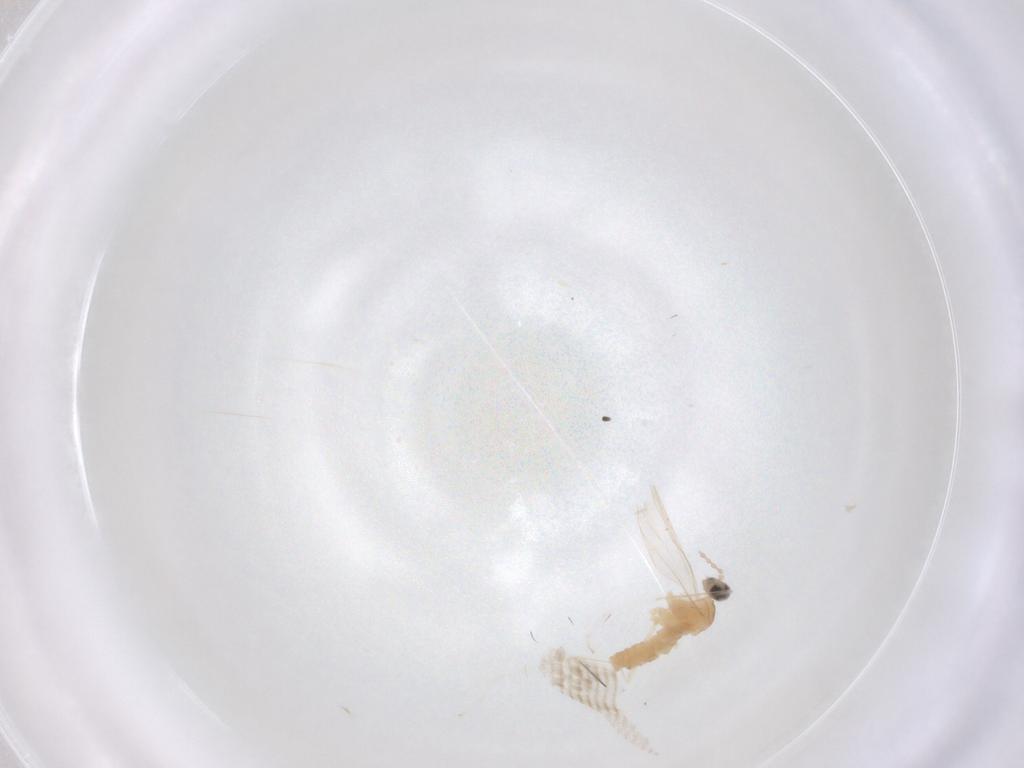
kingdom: Animalia
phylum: Arthropoda
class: Insecta
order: Diptera
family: Cecidomyiidae
